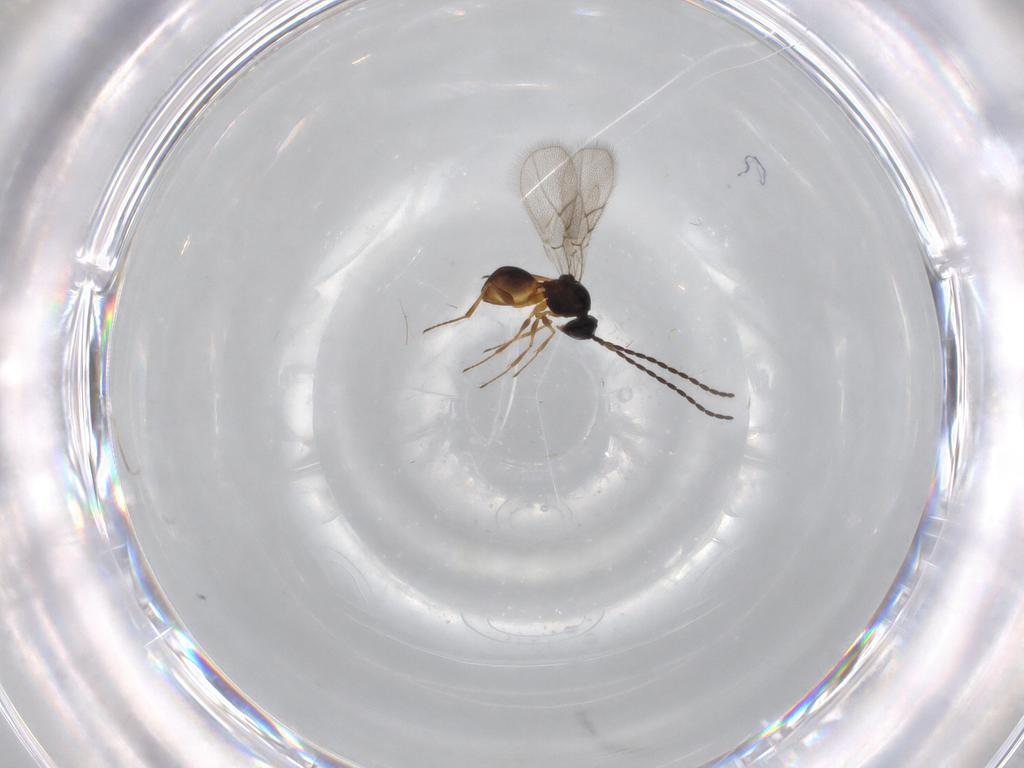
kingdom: Animalia
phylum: Arthropoda
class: Insecta
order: Hymenoptera
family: Figitidae
